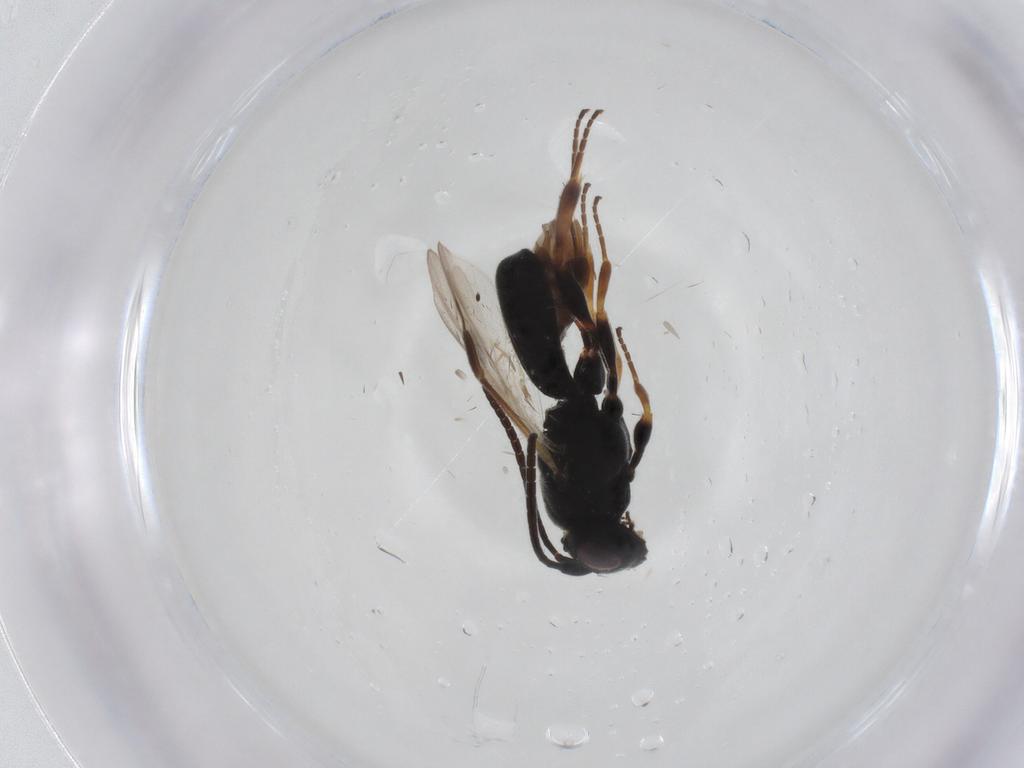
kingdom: Animalia
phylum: Arthropoda
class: Insecta
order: Hymenoptera
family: Braconidae
